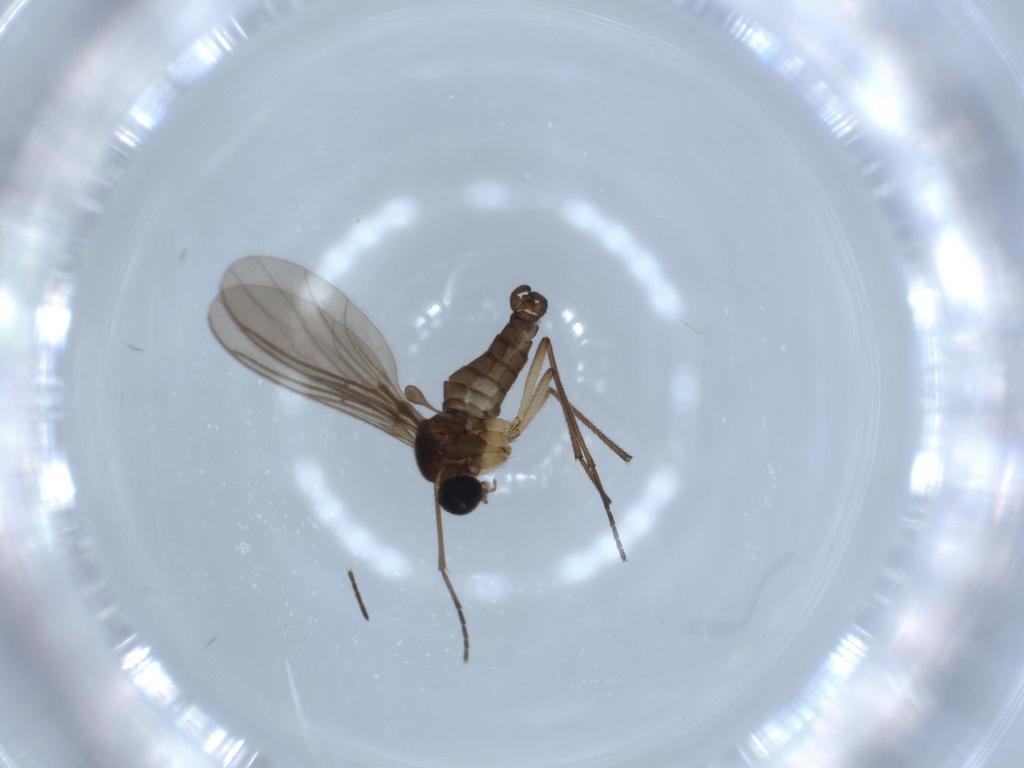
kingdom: Animalia
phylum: Arthropoda
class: Insecta
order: Diptera
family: Sciaridae
